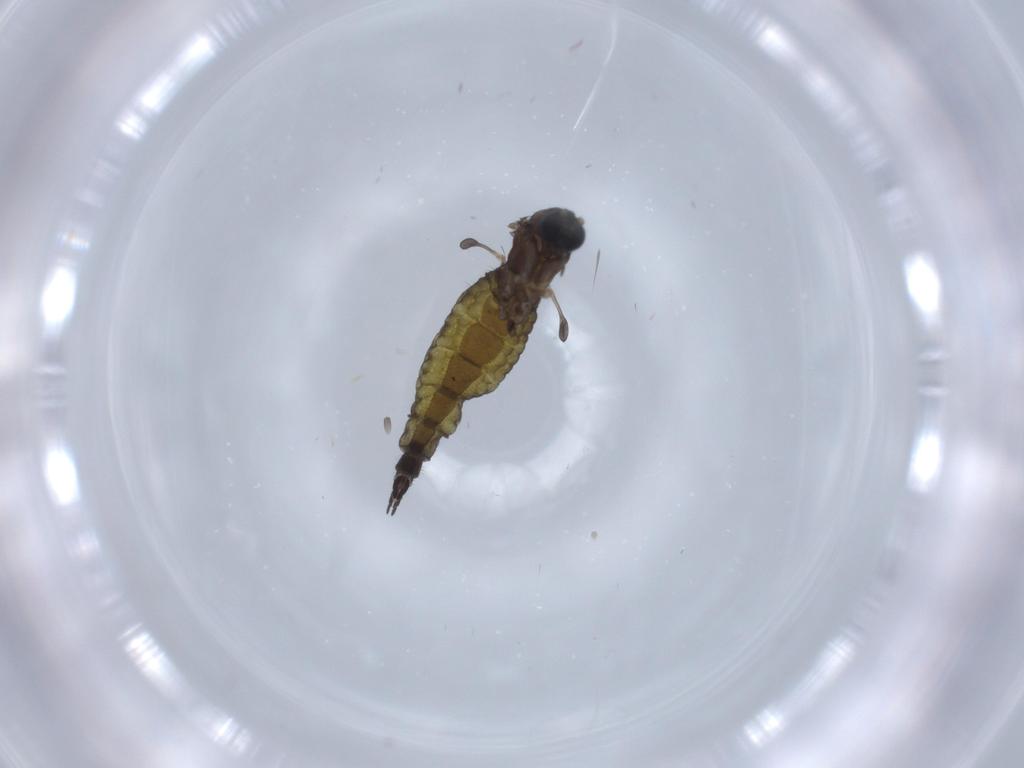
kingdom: Animalia
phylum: Arthropoda
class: Insecta
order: Diptera
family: Sciaridae
